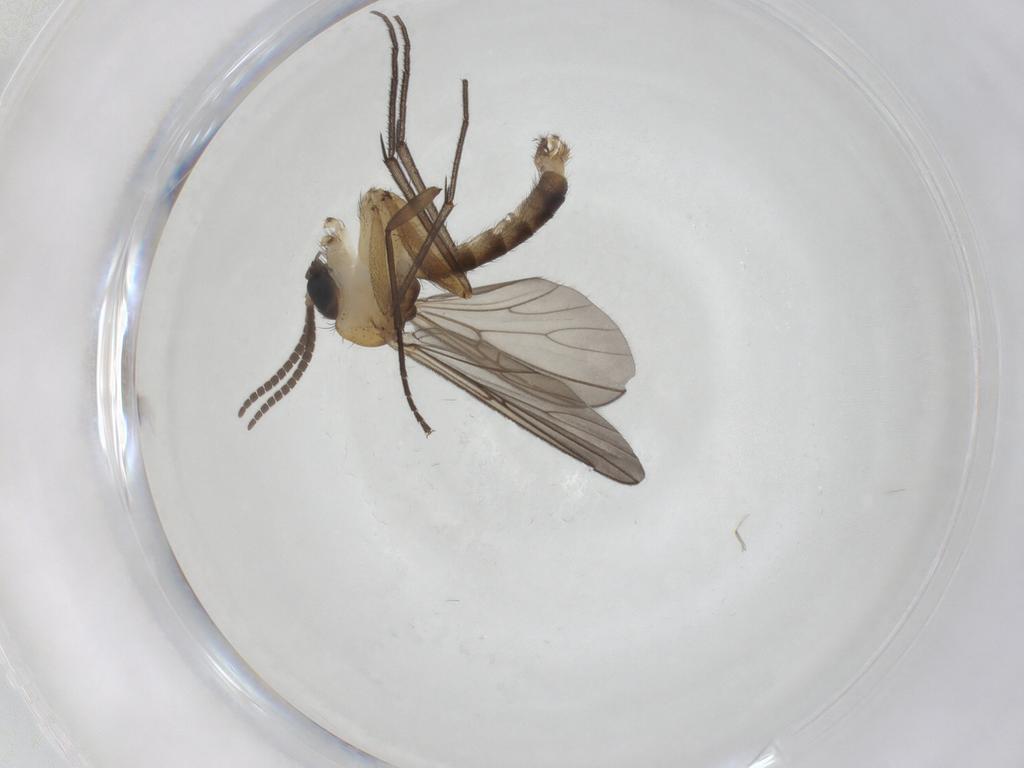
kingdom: Animalia
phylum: Arthropoda
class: Insecta
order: Diptera
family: Mycetophilidae
